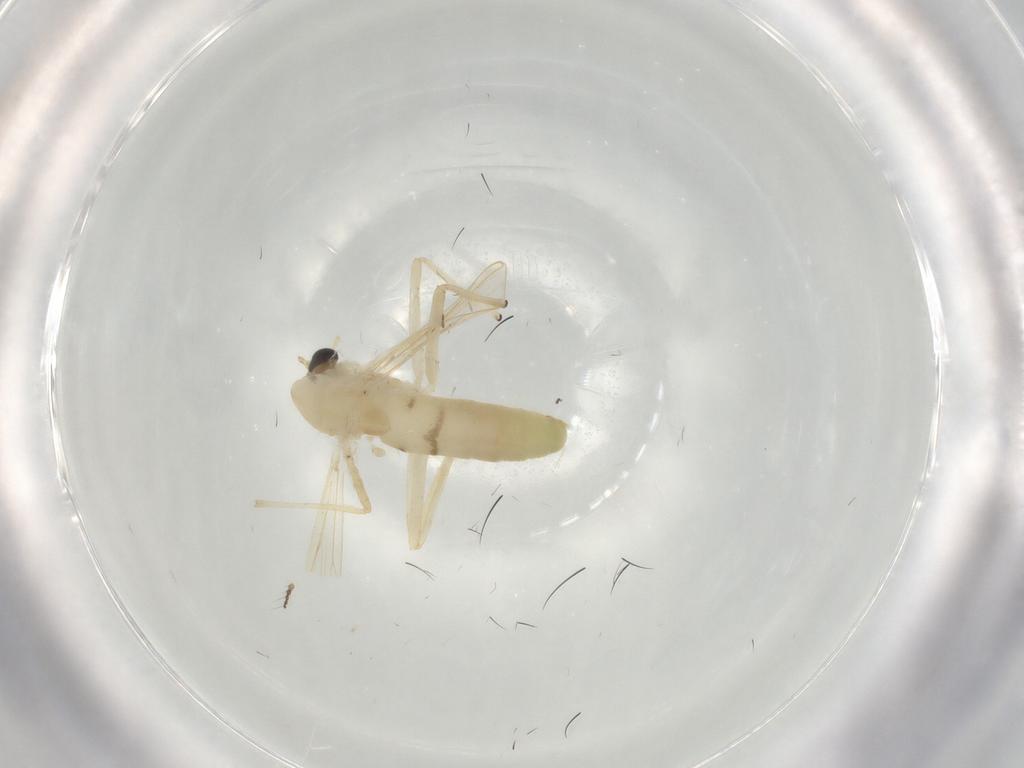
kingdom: Animalia
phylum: Arthropoda
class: Insecta
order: Diptera
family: Chironomidae
